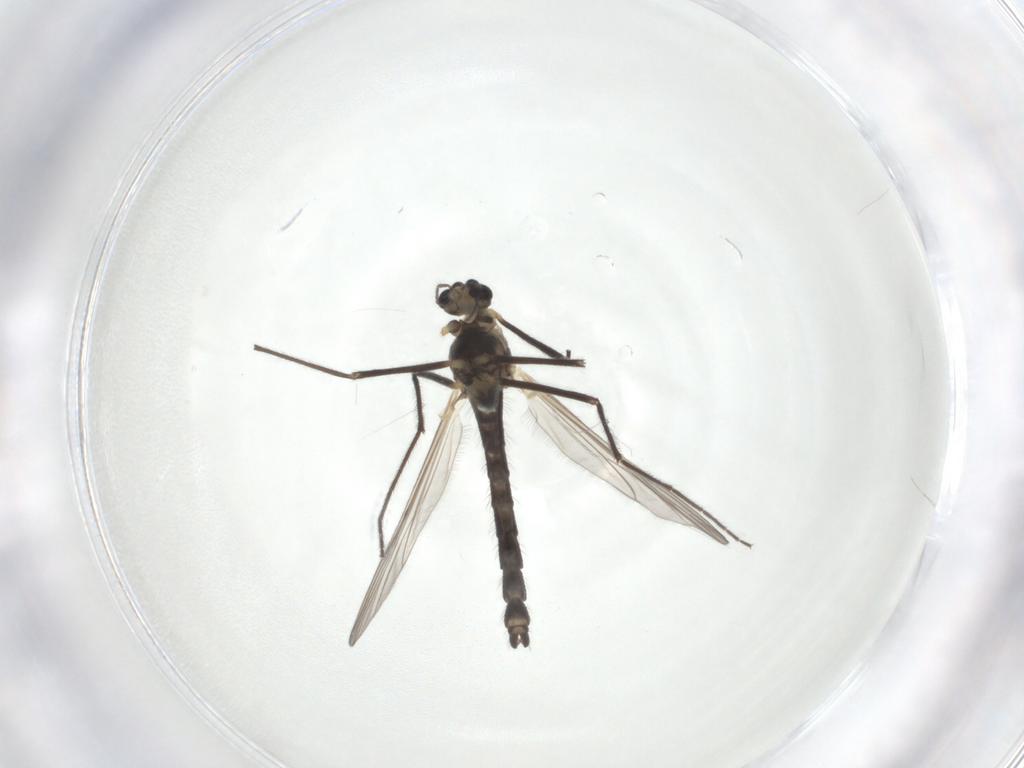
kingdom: Animalia
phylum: Arthropoda
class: Insecta
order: Diptera
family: Chironomidae
